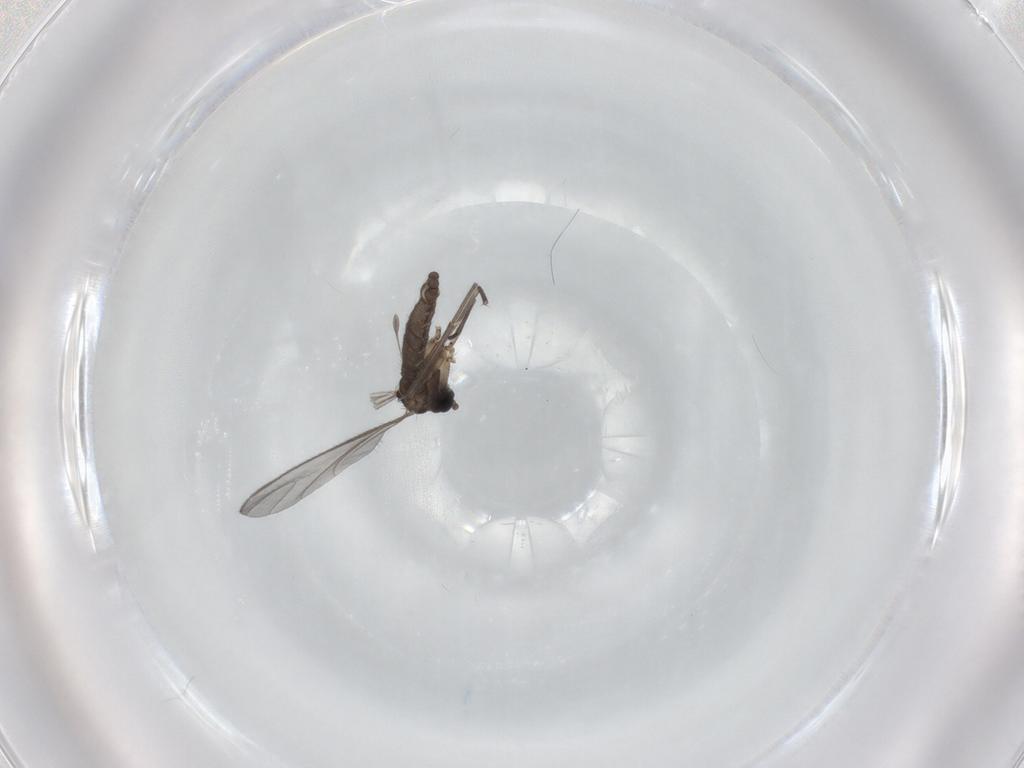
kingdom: Animalia
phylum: Arthropoda
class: Insecta
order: Diptera
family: Sciaridae
